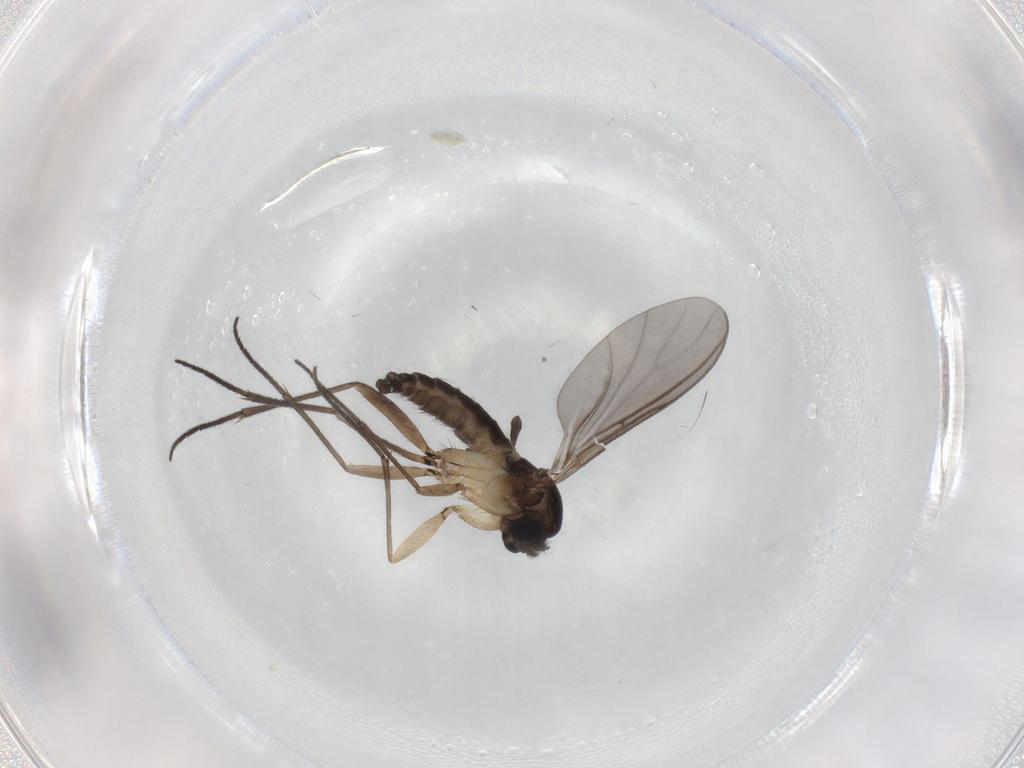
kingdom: Animalia
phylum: Arthropoda
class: Insecta
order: Diptera
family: Sciaridae
